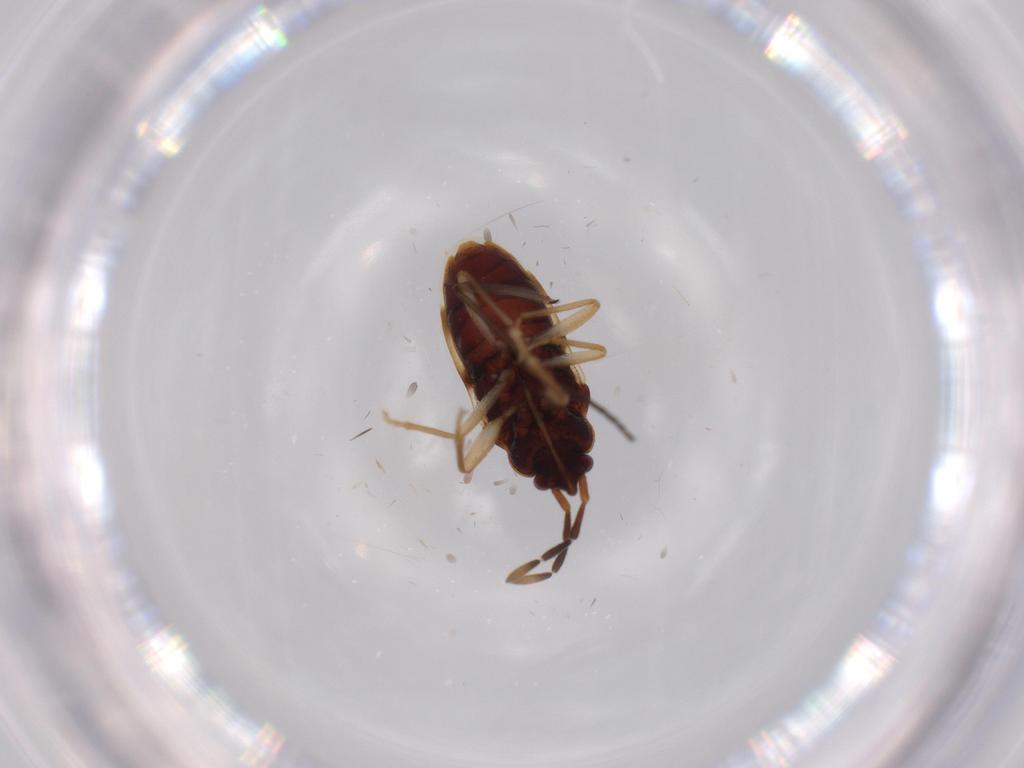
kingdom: Animalia
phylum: Arthropoda
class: Insecta
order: Hemiptera
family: Rhyparochromidae
